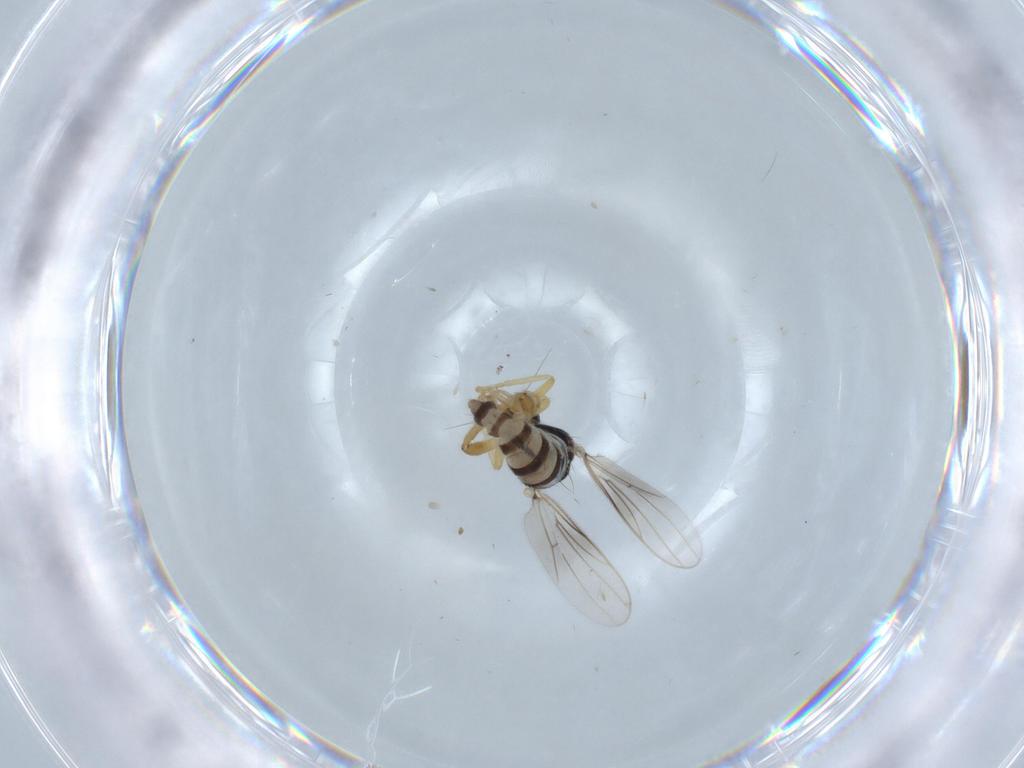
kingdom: Animalia
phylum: Arthropoda
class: Insecta
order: Diptera
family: Hybotidae
